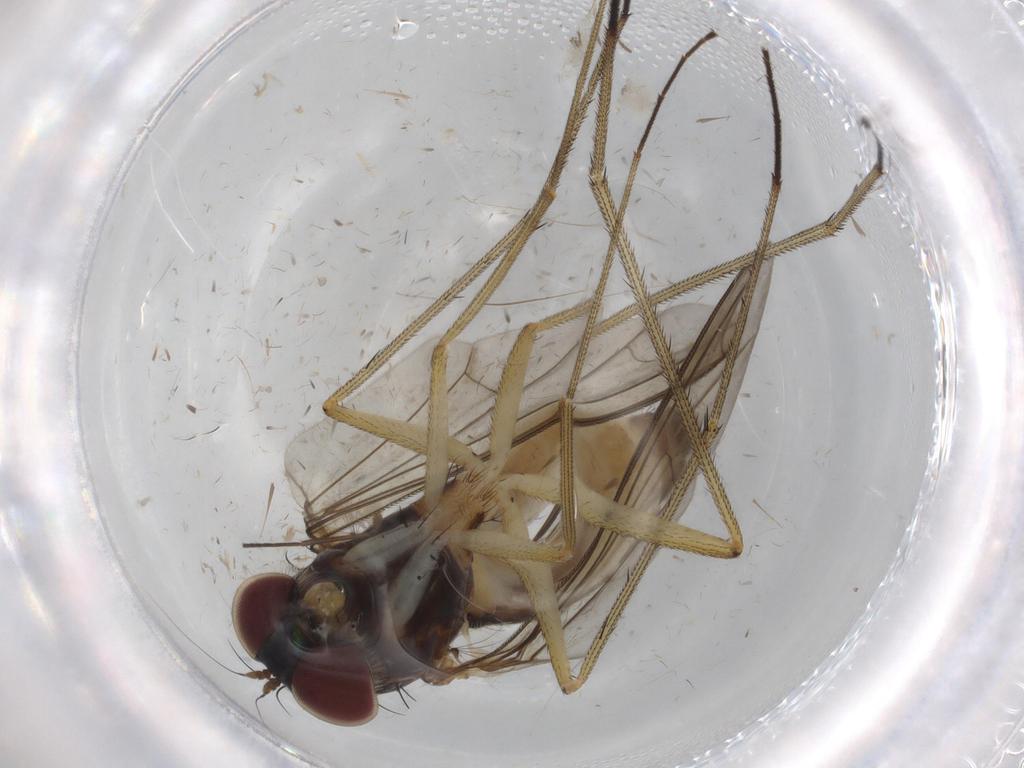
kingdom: Animalia
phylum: Arthropoda
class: Insecta
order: Diptera
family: Dolichopodidae
